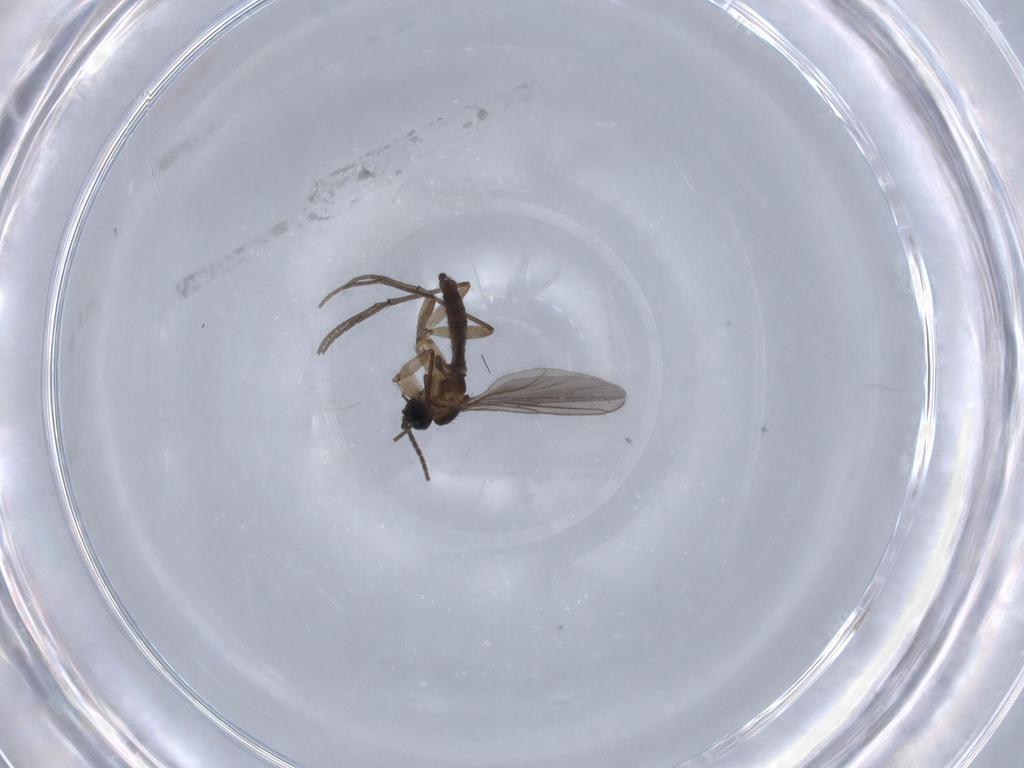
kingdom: Animalia
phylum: Arthropoda
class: Insecta
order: Diptera
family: Sciaridae
